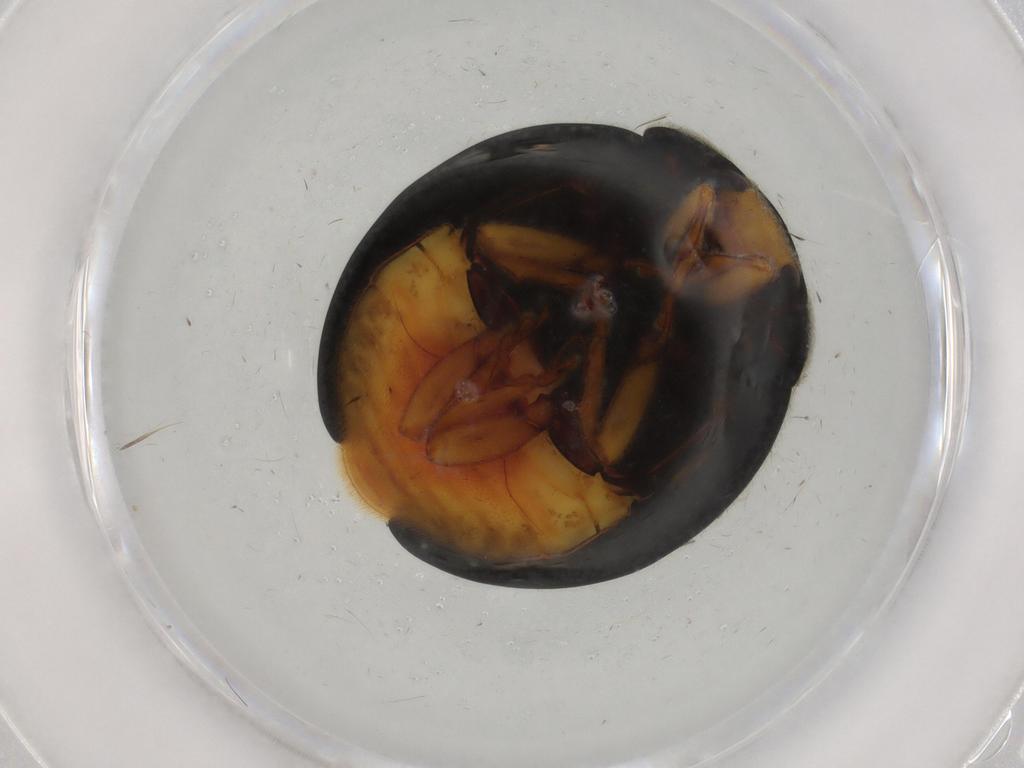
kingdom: Animalia
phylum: Arthropoda
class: Insecta
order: Coleoptera
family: Coccinellidae
